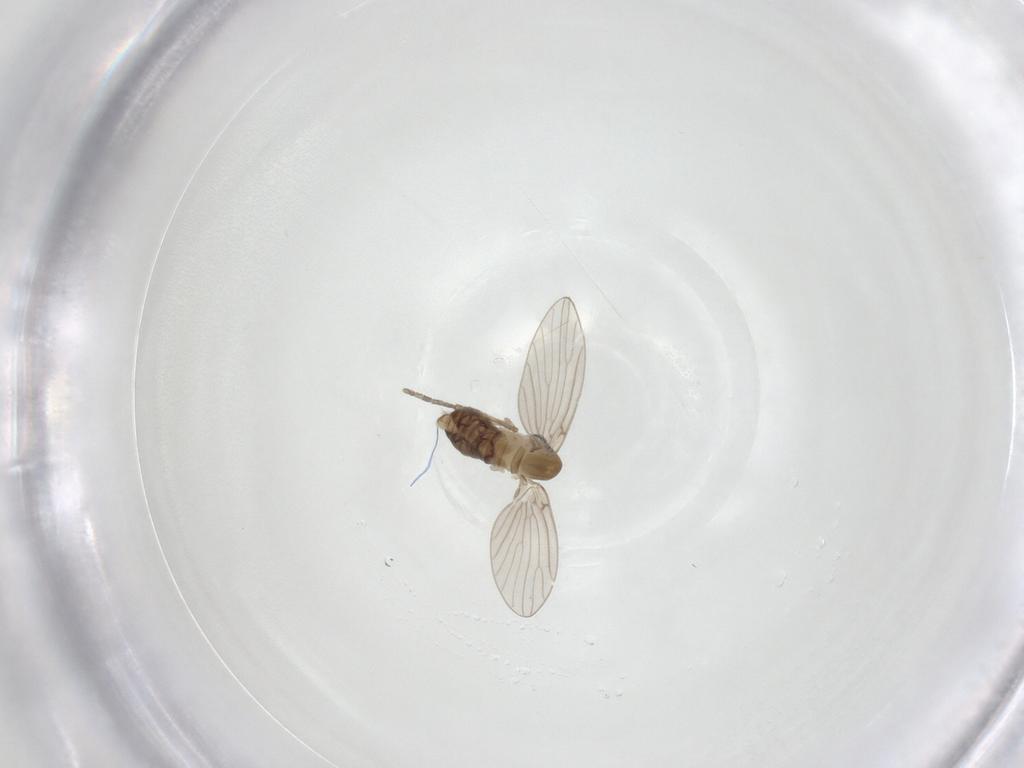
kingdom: Animalia
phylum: Arthropoda
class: Insecta
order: Diptera
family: Psychodidae
